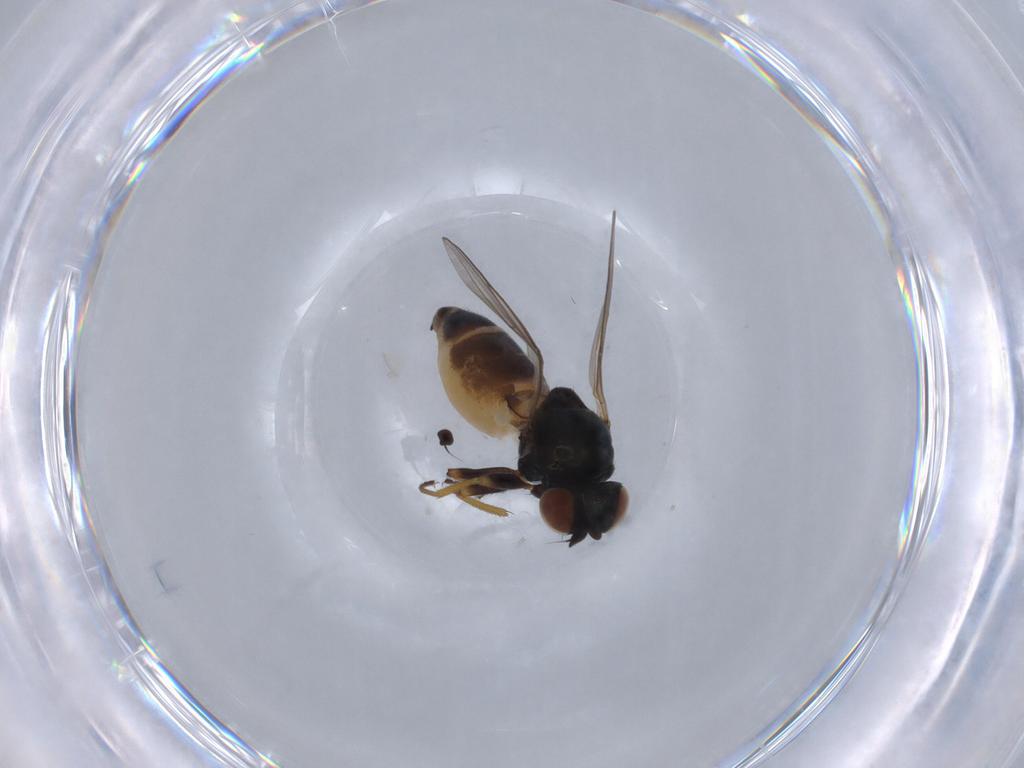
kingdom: Animalia
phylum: Arthropoda
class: Insecta
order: Diptera
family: Chloropidae
